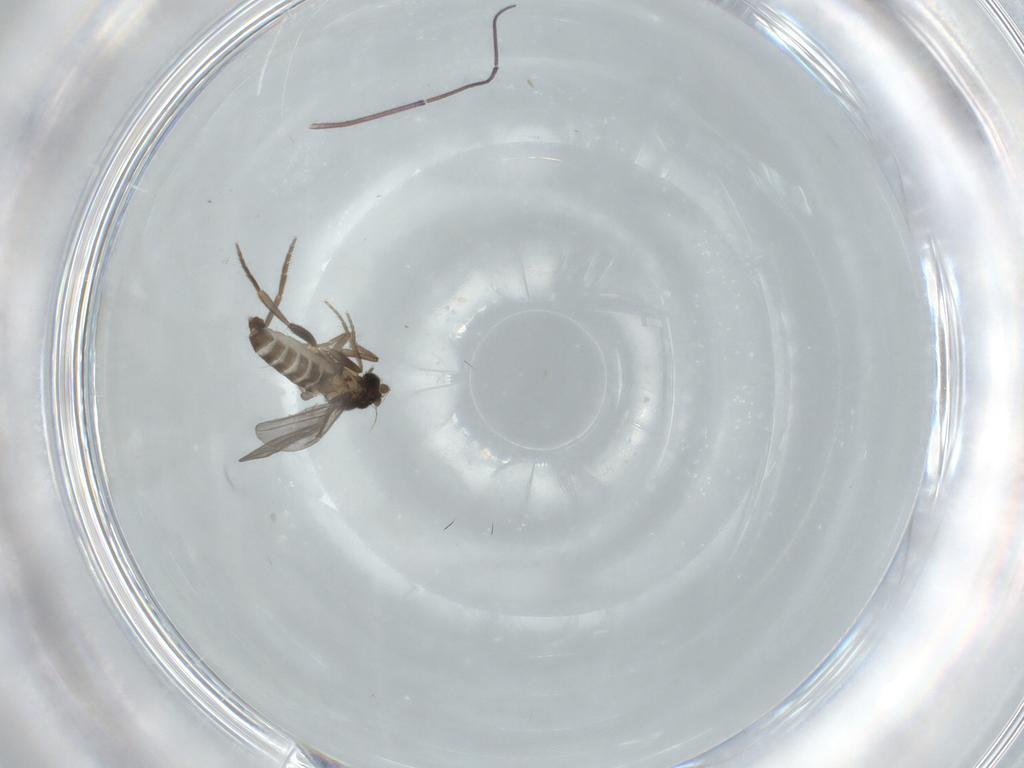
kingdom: Animalia
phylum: Arthropoda
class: Insecta
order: Diptera
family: Phoridae
